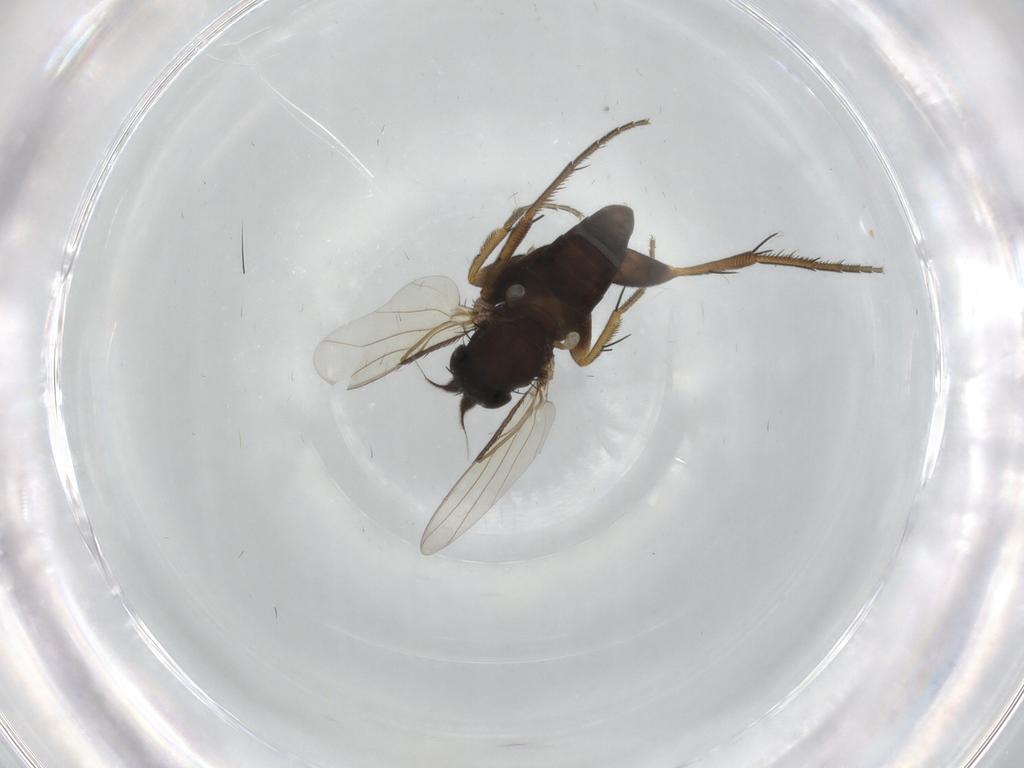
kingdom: Animalia
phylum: Arthropoda
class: Insecta
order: Diptera
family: Phoridae
